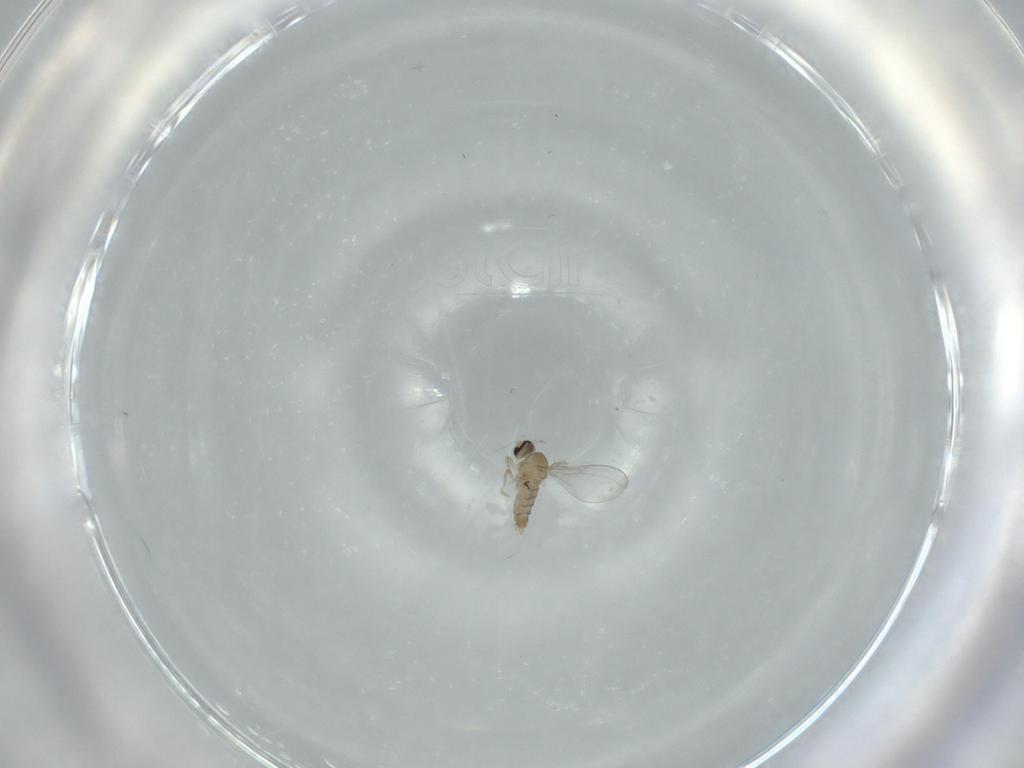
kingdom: Animalia
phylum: Arthropoda
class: Insecta
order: Diptera
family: Cecidomyiidae
